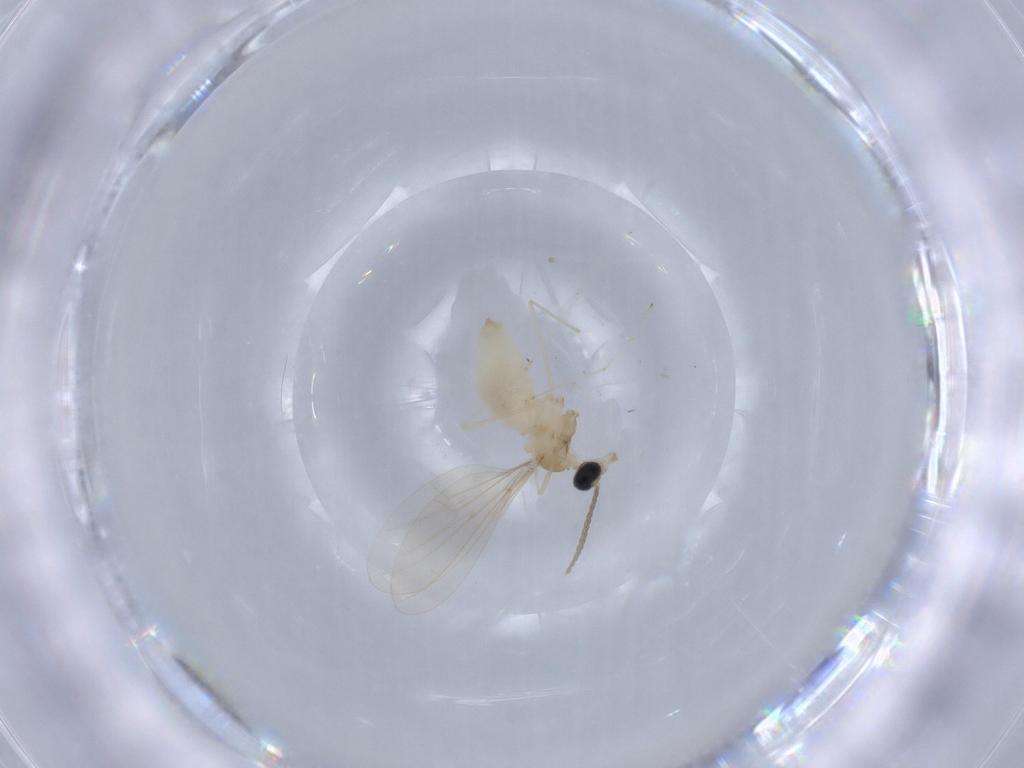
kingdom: Animalia
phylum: Arthropoda
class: Insecta
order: Diptera
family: Cecidomyiidae
